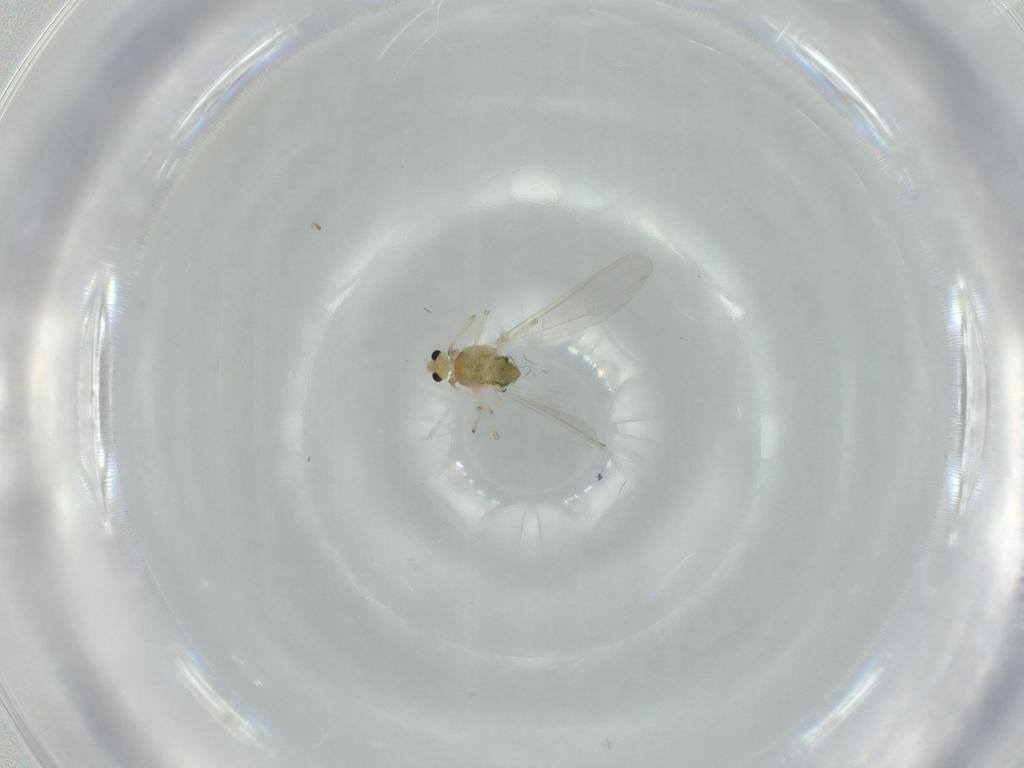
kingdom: Animalia
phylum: Arthropoda
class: Insecta
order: Diptera
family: Chironomidae
